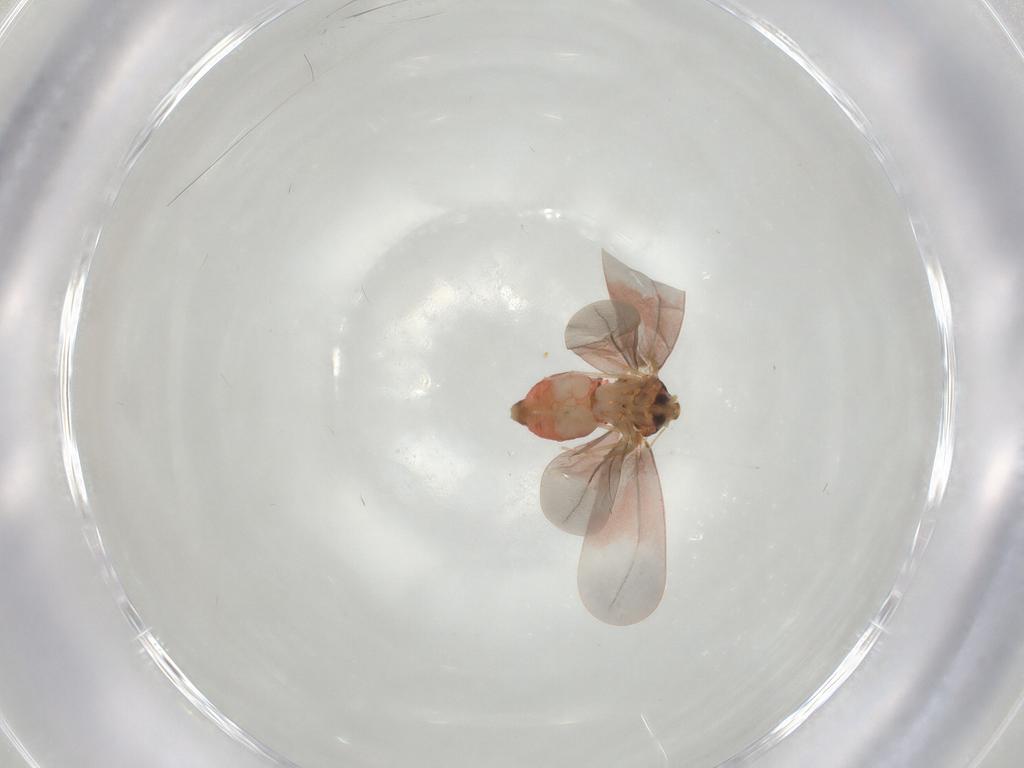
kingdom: Animalia
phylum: Arthropoda
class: Insecta
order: Hemiptera
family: Aleyrodidae
